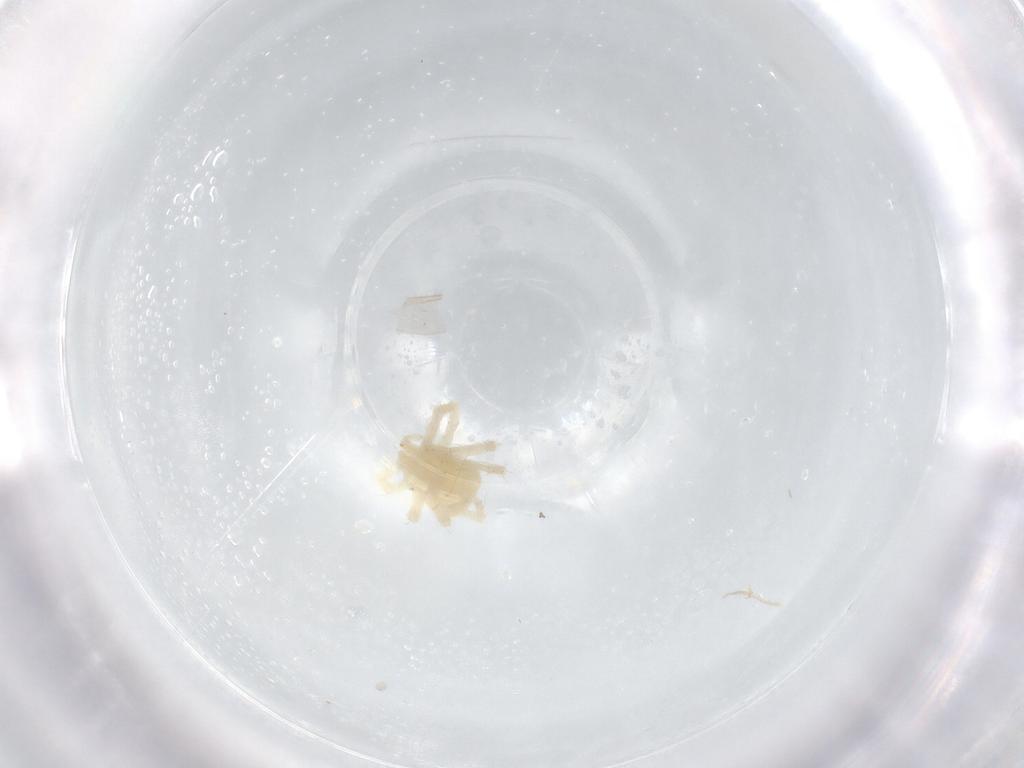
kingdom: Animalia
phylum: Arthropoda
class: Arachnida
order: Trombidiformes
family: Anystidae
